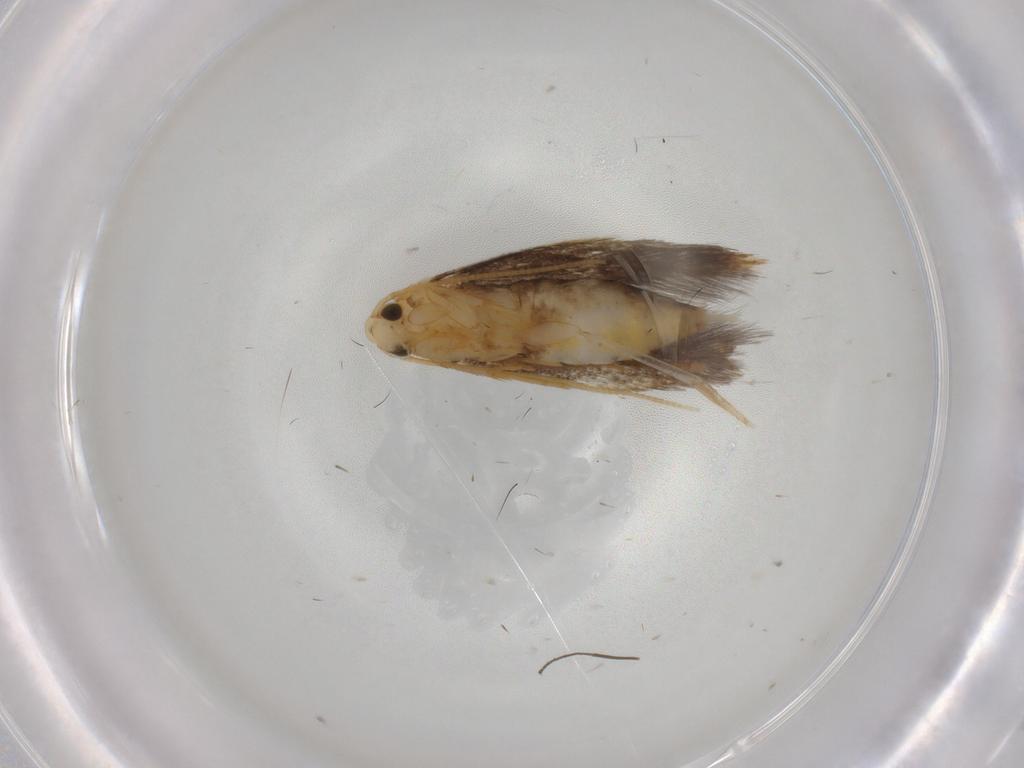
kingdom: Animalia
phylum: Arthropoda
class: Insecta
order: Lepidoptera
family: Tineidae
